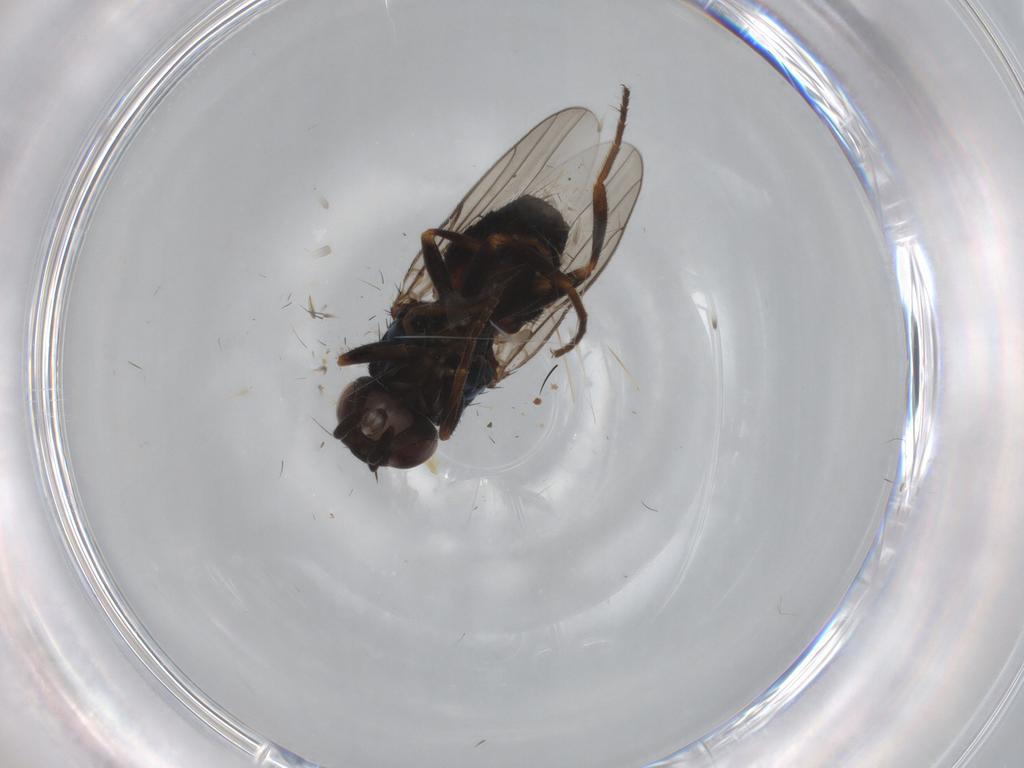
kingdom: Animalia
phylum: Arthropoda
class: Insecta
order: Diptera
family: Chloropidae
